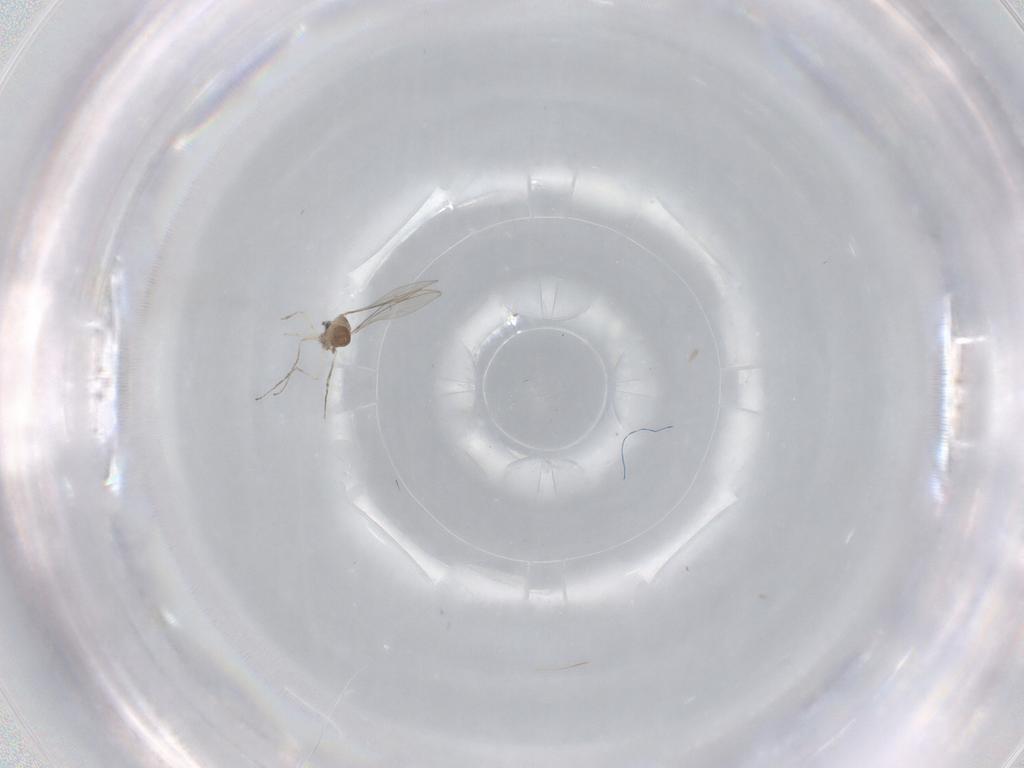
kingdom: Animalia
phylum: Arthropoda
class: Insecta
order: Diptera
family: Cecidomyiidae
